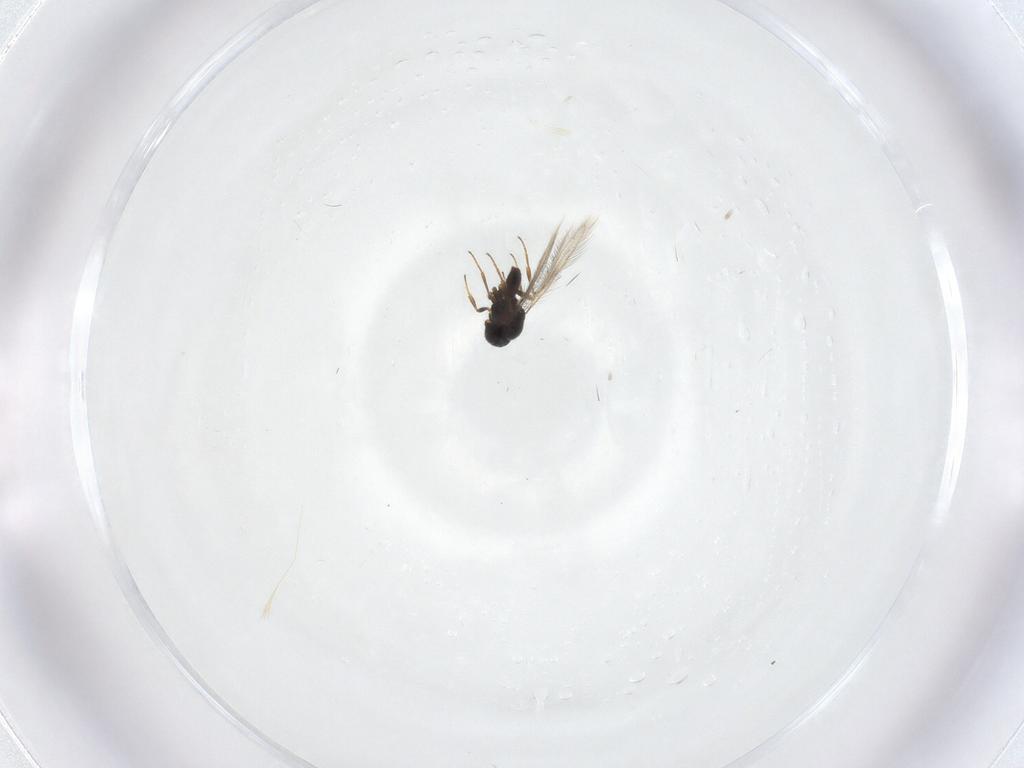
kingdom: Animalia
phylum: Arthropoda
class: Insecta
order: Hymenoptera
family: Scelionidae
